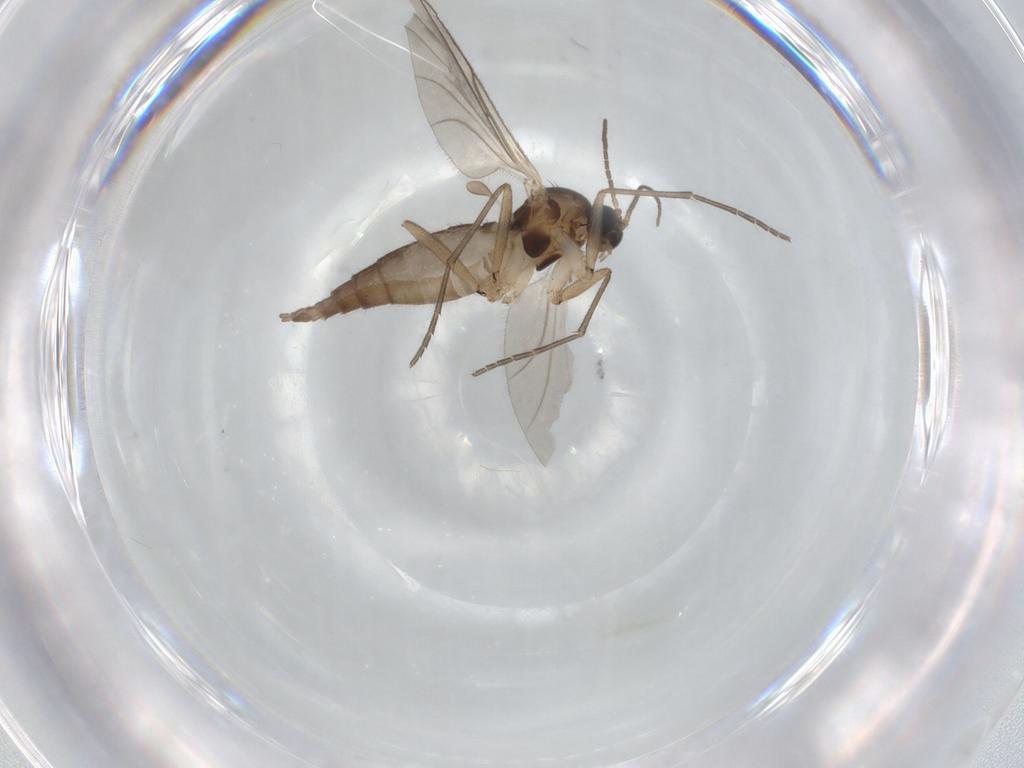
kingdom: Animalia
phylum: Arthropoda
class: Insecta
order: Diptera
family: Sciaridae
